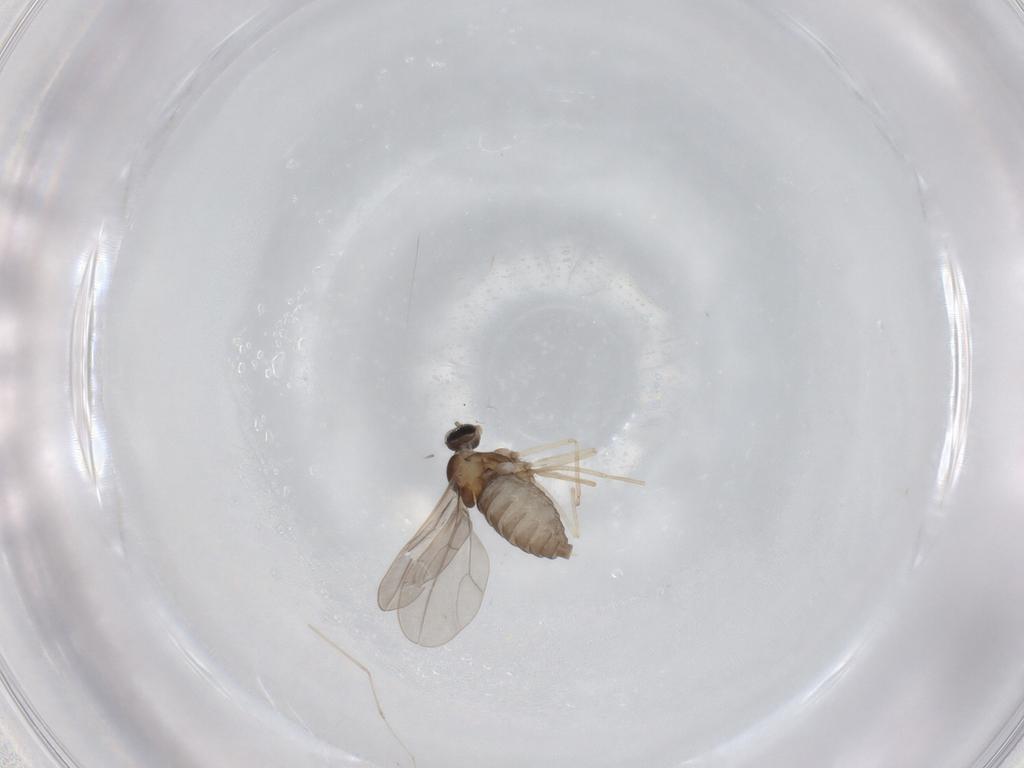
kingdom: Animalia
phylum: Arthropoda
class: Insecta
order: Diptera
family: Cecidomyiidae
